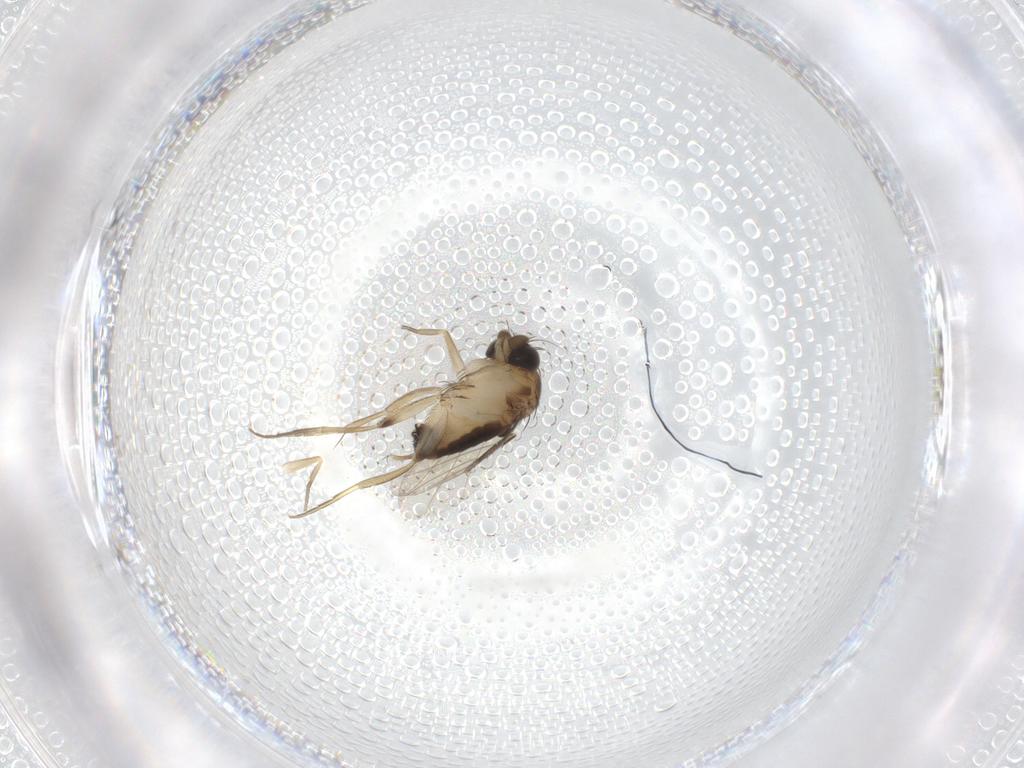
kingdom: Animalia
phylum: Arthropoda
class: Insecta
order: Diptera
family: Phoridae
